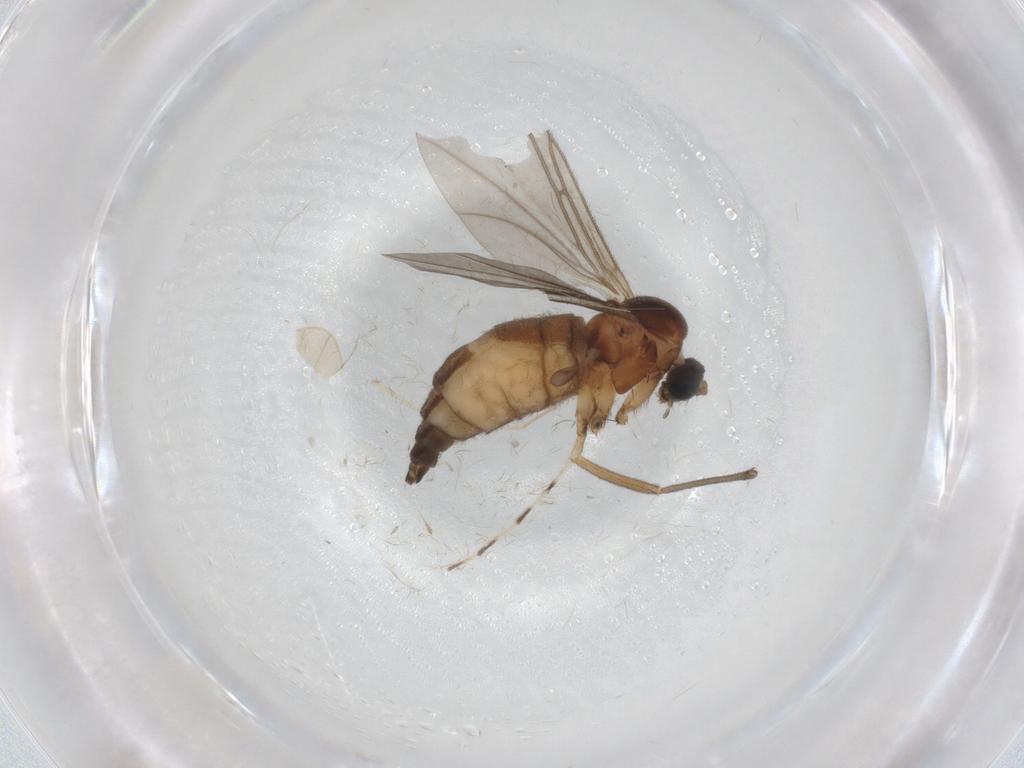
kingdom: Animalia
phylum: Arthropoda
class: Insecta
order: Diptera
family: Sciaridae
